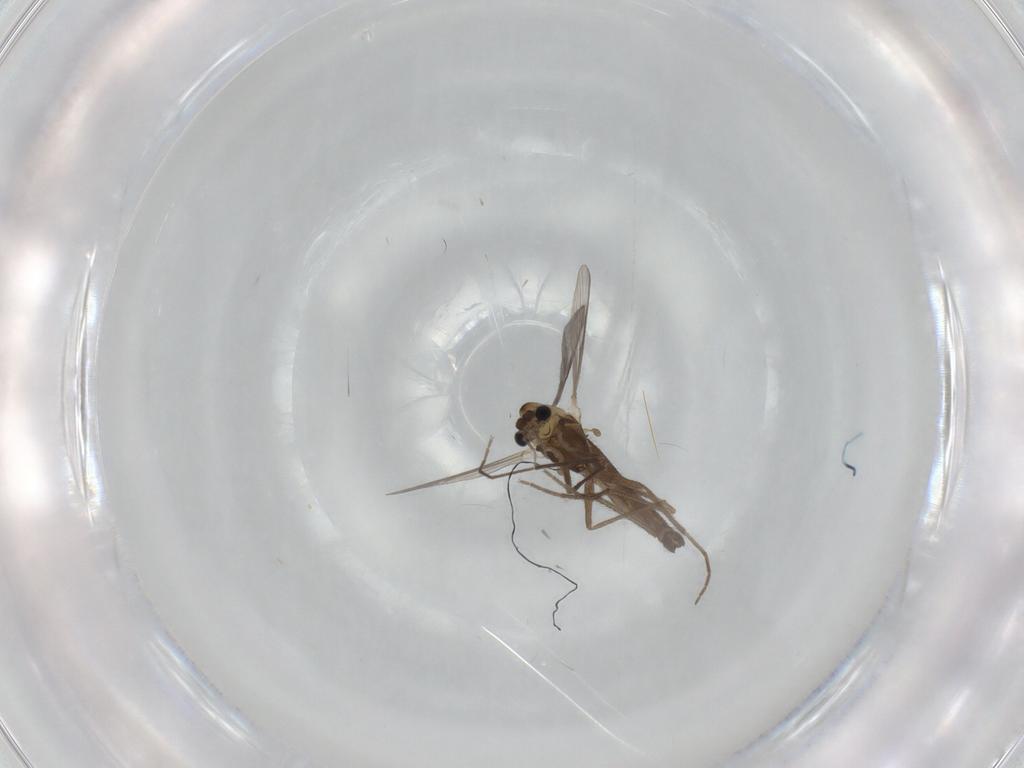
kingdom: Animalia
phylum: Arthropoda
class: Insecta
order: Diptera
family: Chironomidae
